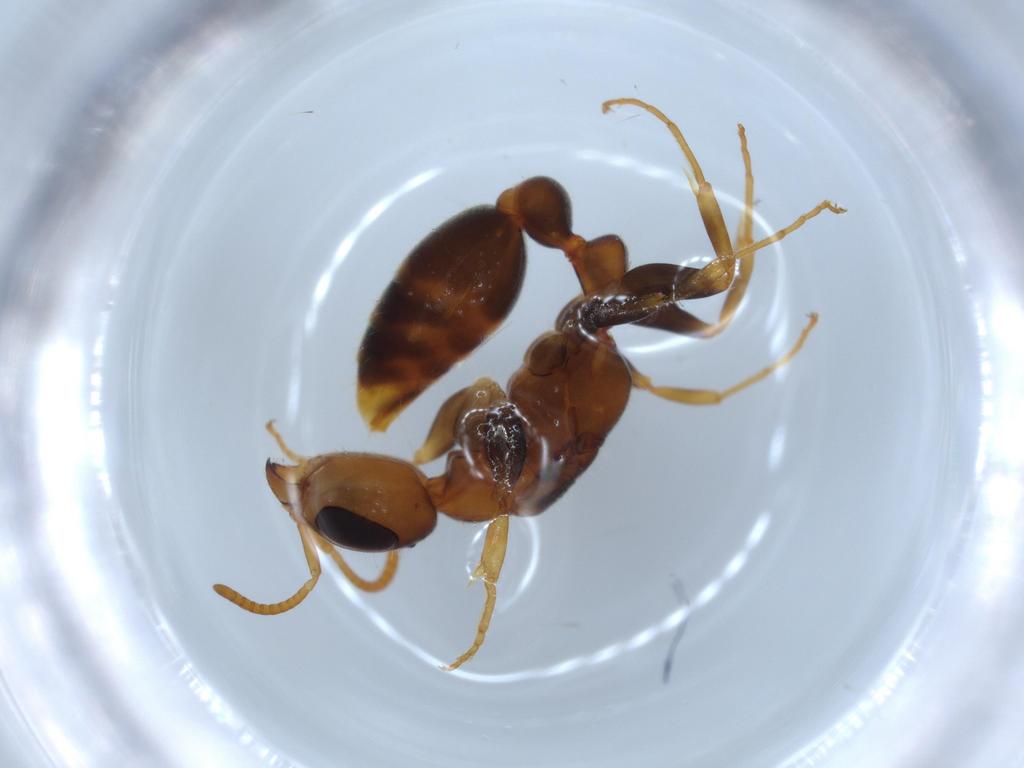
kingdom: Animalia
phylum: Arthropoda
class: Insecta
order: Hymenoptera
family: Formicidae
